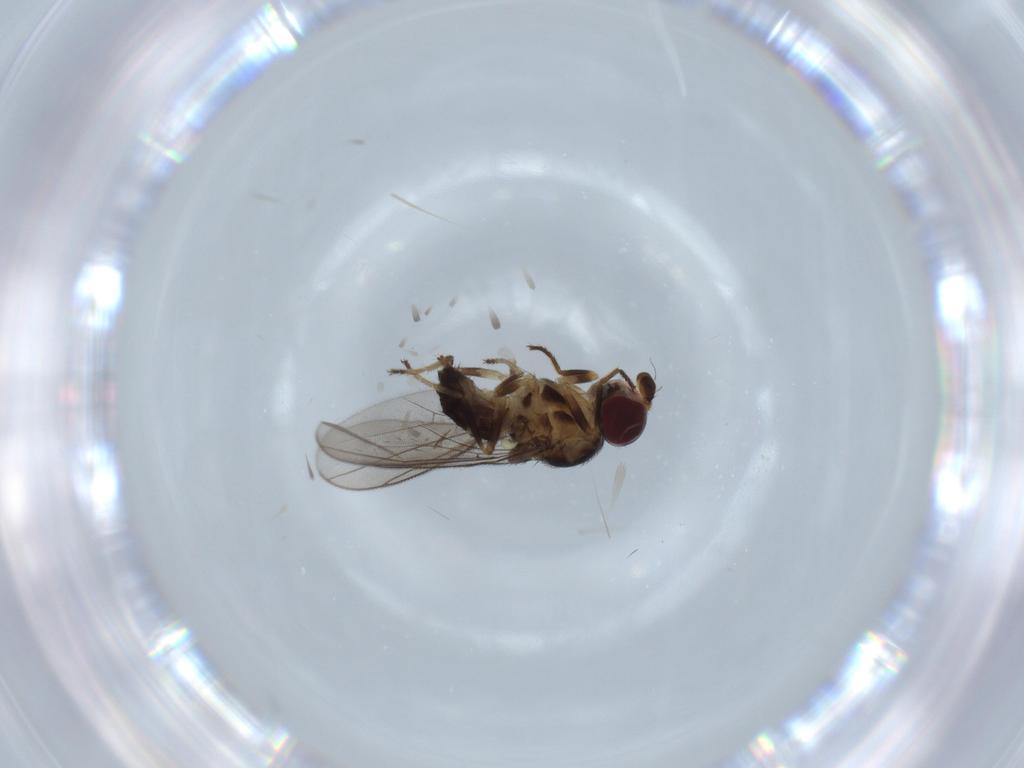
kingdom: Animalia
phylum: Arthropoda
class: Insecta
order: Diptera
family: Chloropidae
